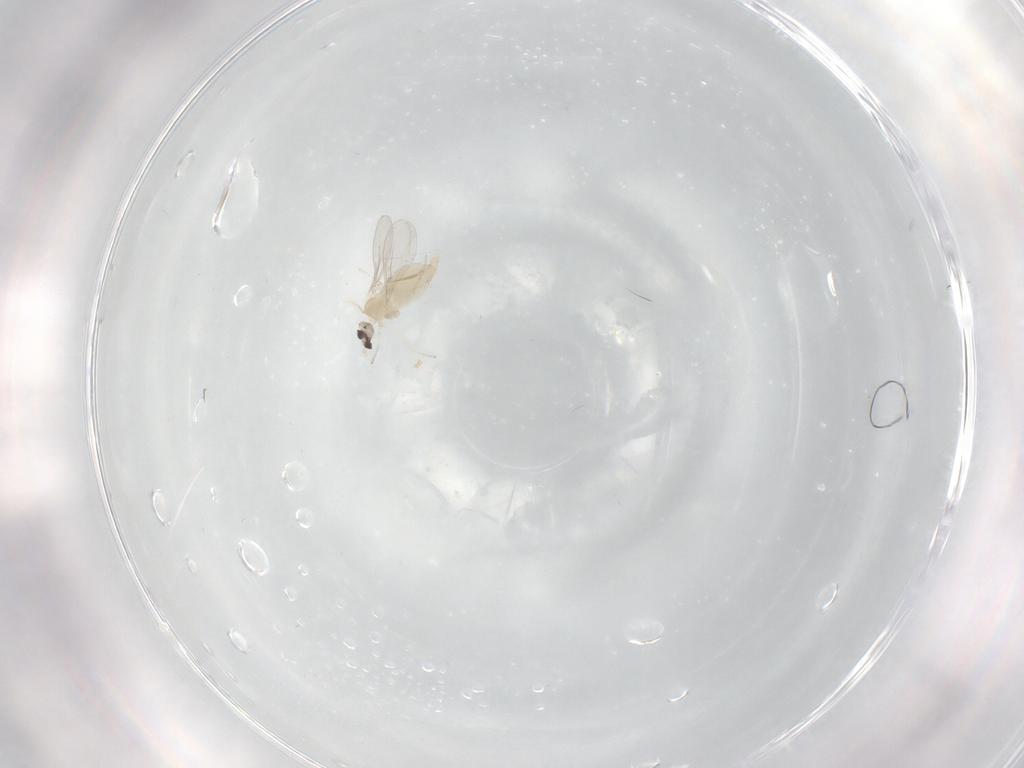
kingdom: Animalia
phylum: Arthropoda
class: Insecta
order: Diptera
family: Cecidomyiidae
